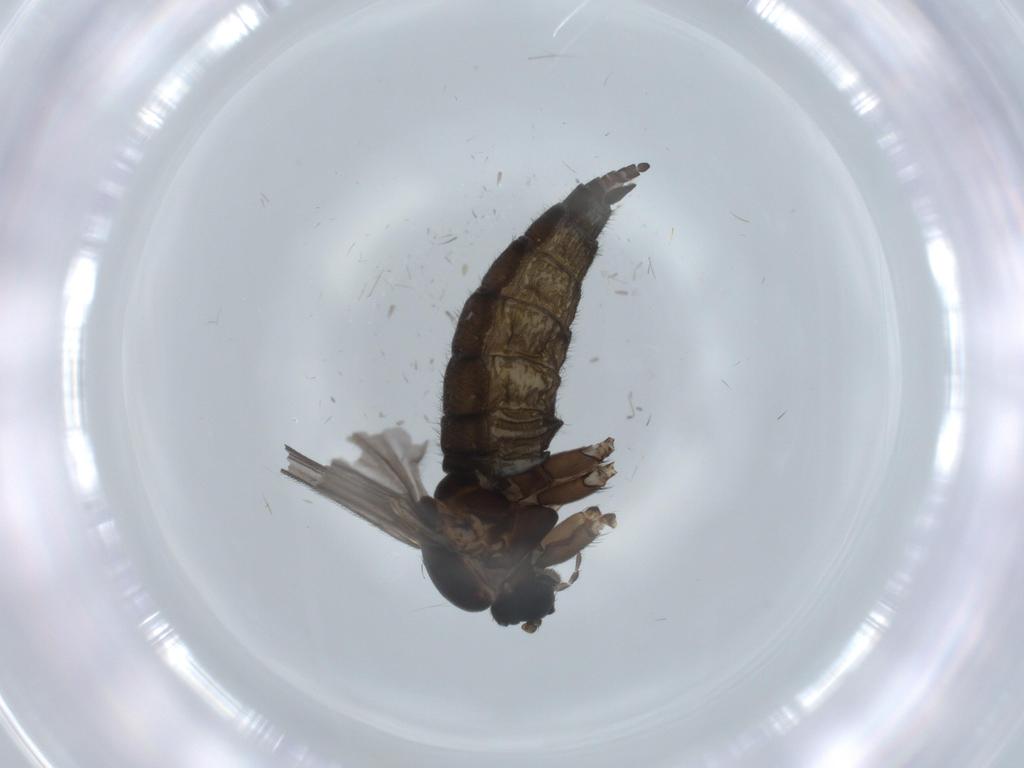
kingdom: Animalia
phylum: Arthropoda
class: Insecta
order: Diptera
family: Sciaridae
